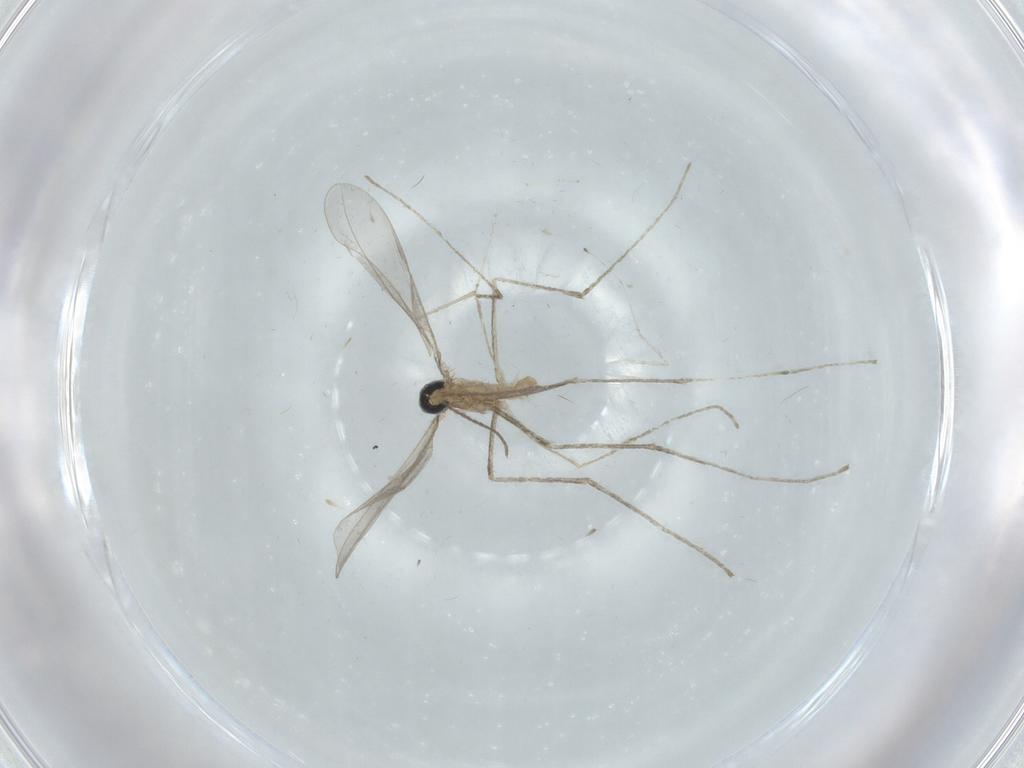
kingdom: Animalia
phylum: Arthropoda
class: Insecta
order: Diptera
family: Cecidomyiidae
